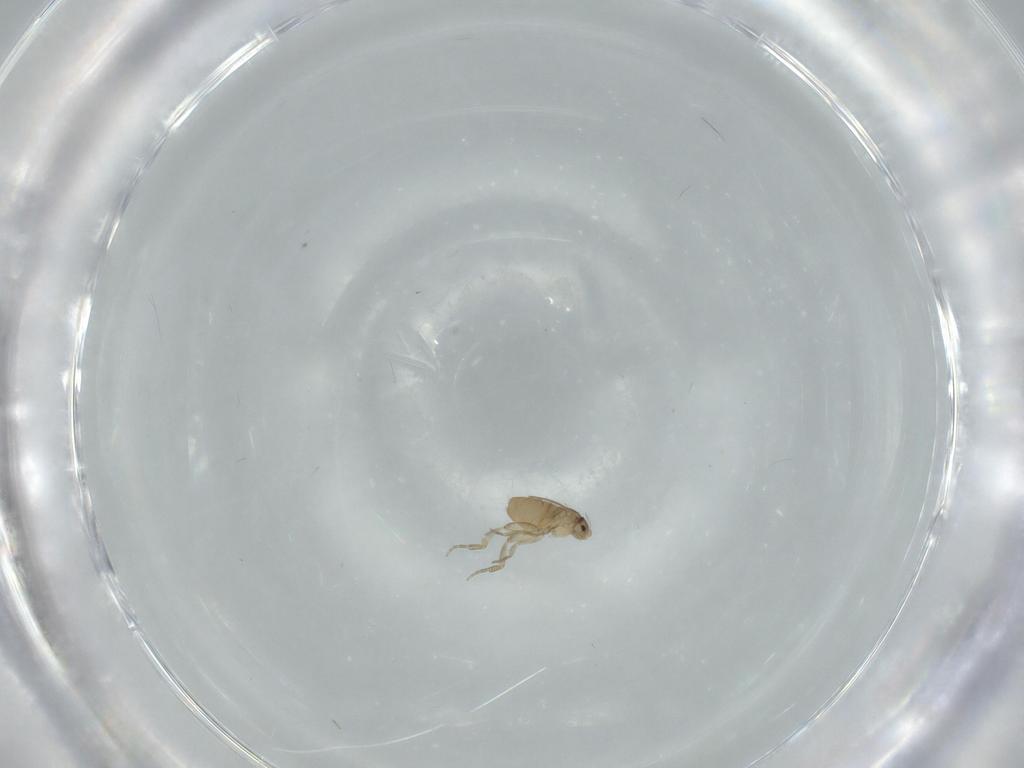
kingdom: Animalia
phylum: Arthropoda
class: Insecta
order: Diptera
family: Phoridae
